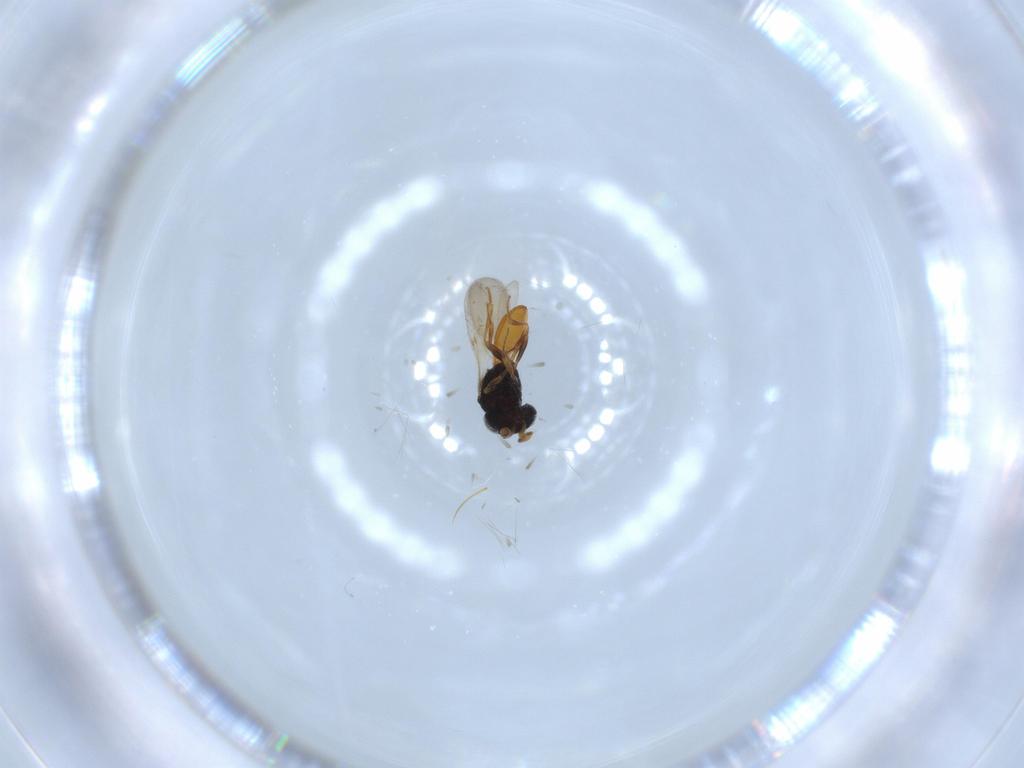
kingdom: Animalia
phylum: Arthropoda
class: Insecta
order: Hymenoptera
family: Scelionidae
